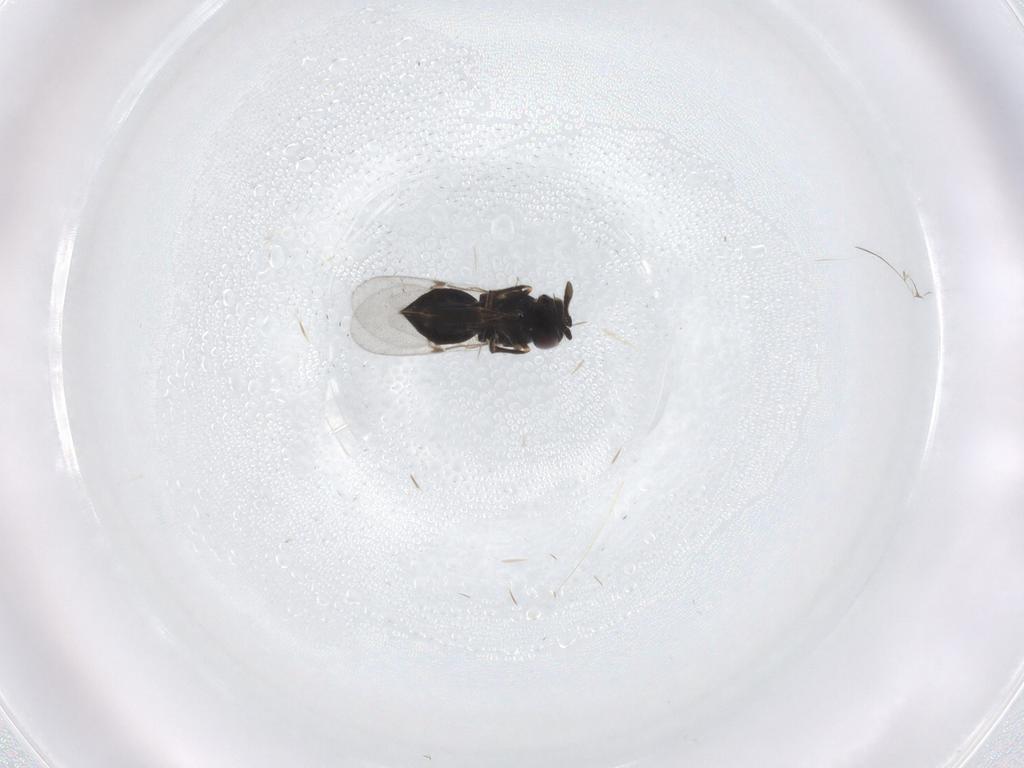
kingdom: Animalia
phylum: Arthropoda
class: Insecta
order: Hymenoptera
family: Encyrtidae
